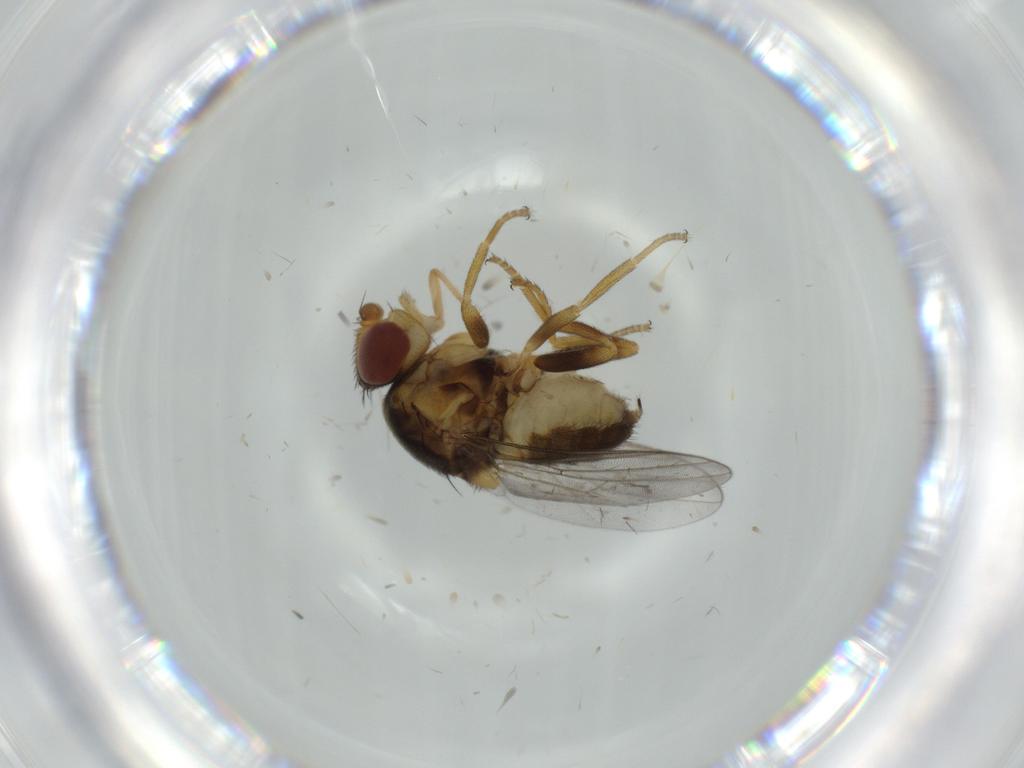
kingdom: Animalia
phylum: Arthropoda
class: Insecta
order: Diptera
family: Chloropidae
